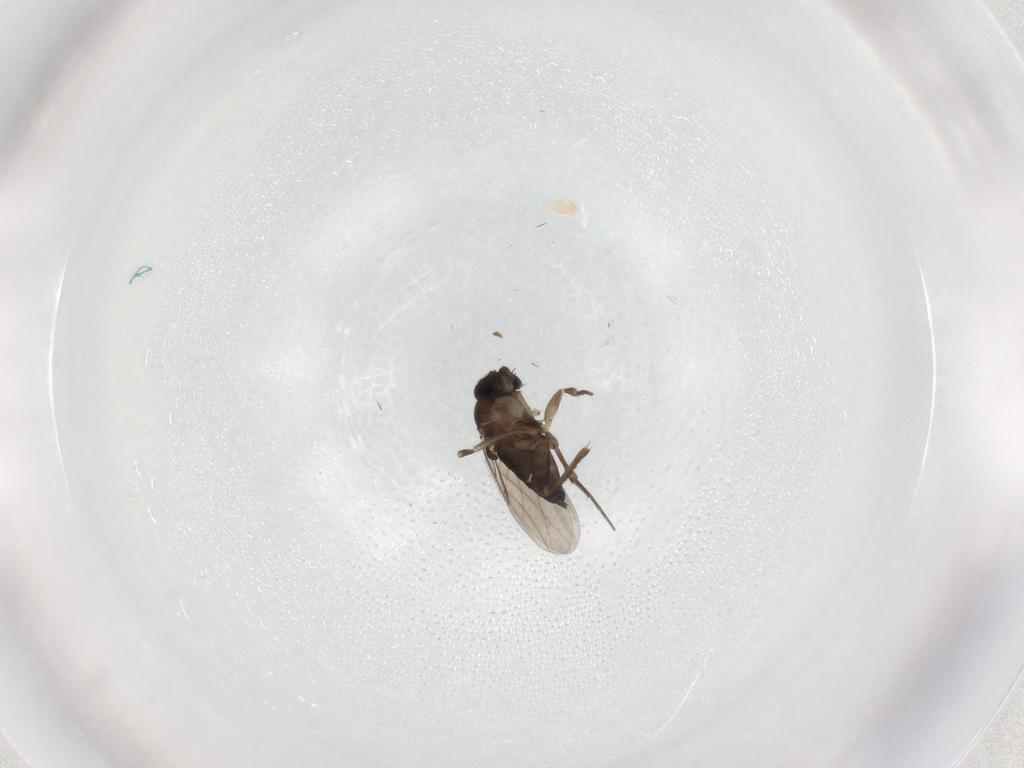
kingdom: Animalia
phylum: Arthropoda
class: Insecta
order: Diptera
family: Phoridae
